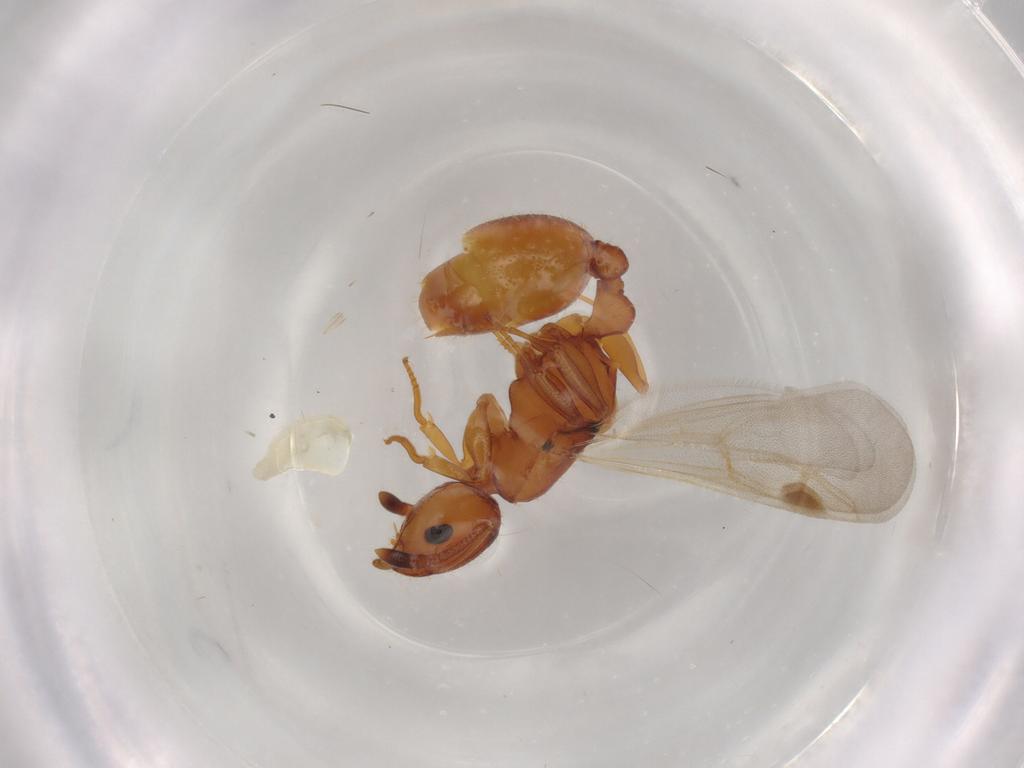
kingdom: Animalia
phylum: Arthropoda
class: Insecta
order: Hymenoptera
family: Formicidae
